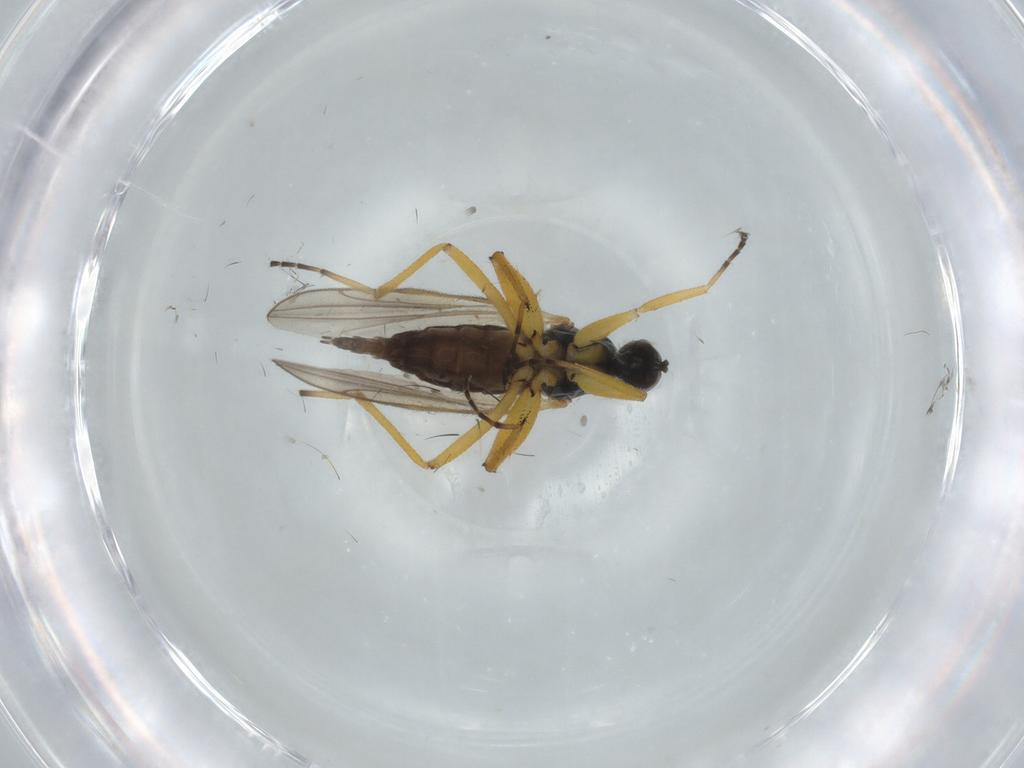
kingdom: Animalia
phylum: Arthropoda
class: Insecta
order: Diptera
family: Hybotidae
